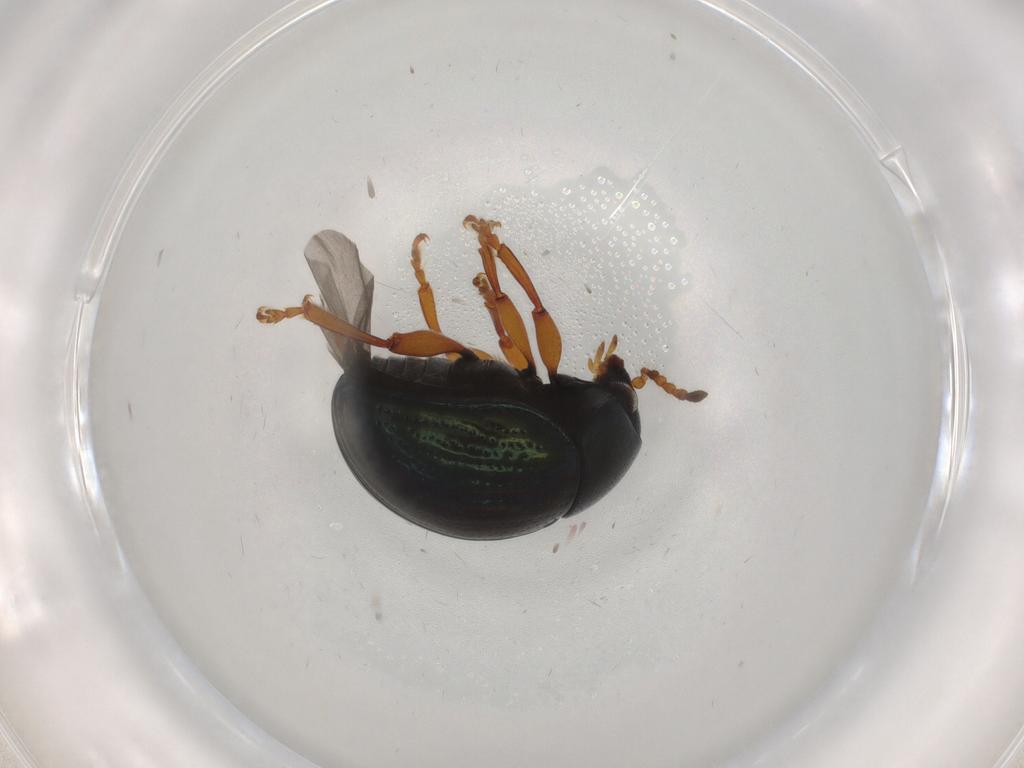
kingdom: Animalia
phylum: Arthropoda
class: Insecta
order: Coleoptera
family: Chrysomelidae
